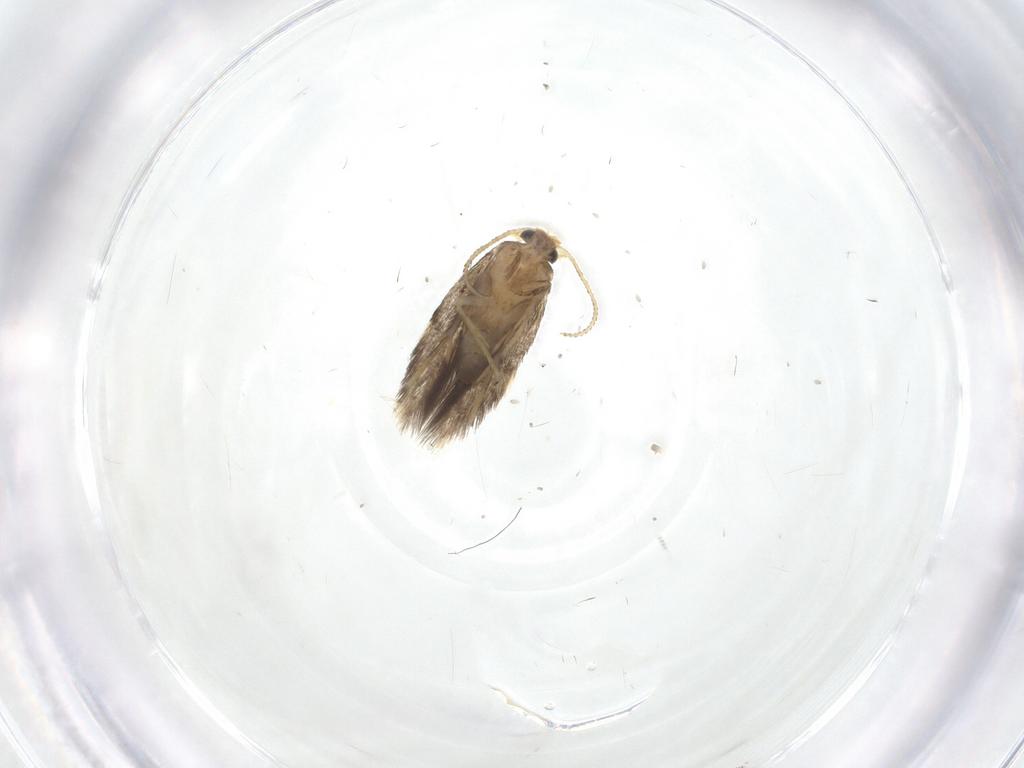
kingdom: Animalia
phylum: Arthropoda
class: Insecta
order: Lepidoptera
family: Tineidae
